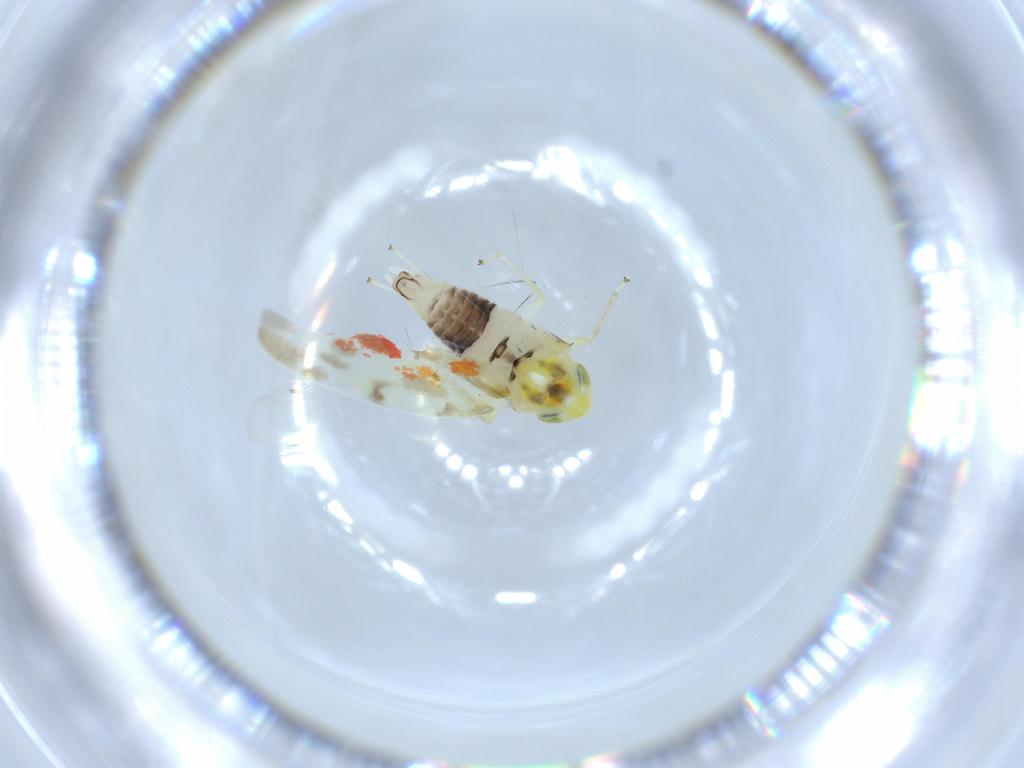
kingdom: Animalia
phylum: Arthropoda
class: Insecta
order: Hemiptera
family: Cicadellidae
